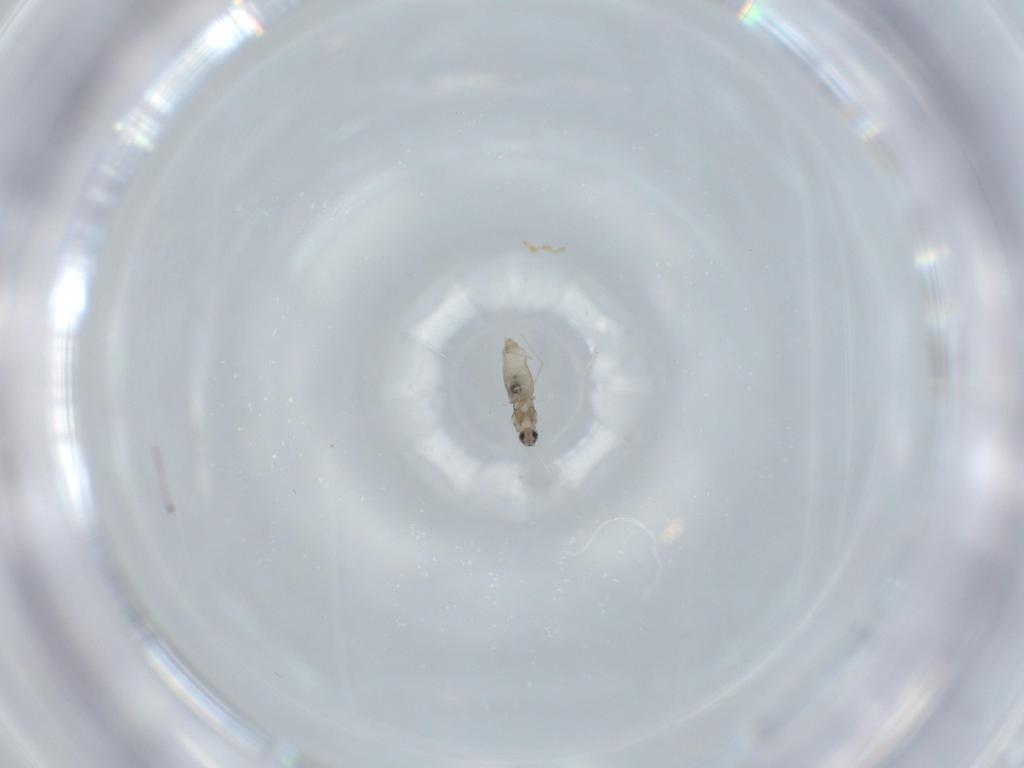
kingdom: Animalia
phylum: Arthropoda
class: Insecta
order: Diptera
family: Cecidomyiidae
